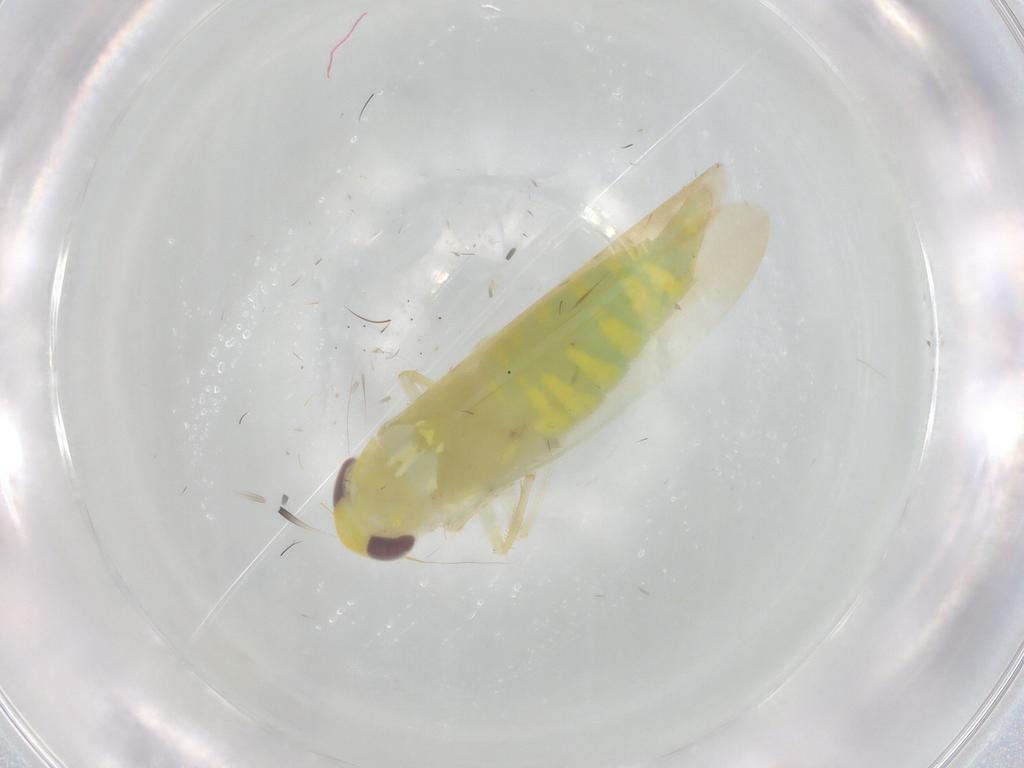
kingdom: Animalia
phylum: Arthropoda
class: Insecta
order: Hemiptera
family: Cicadellidae
